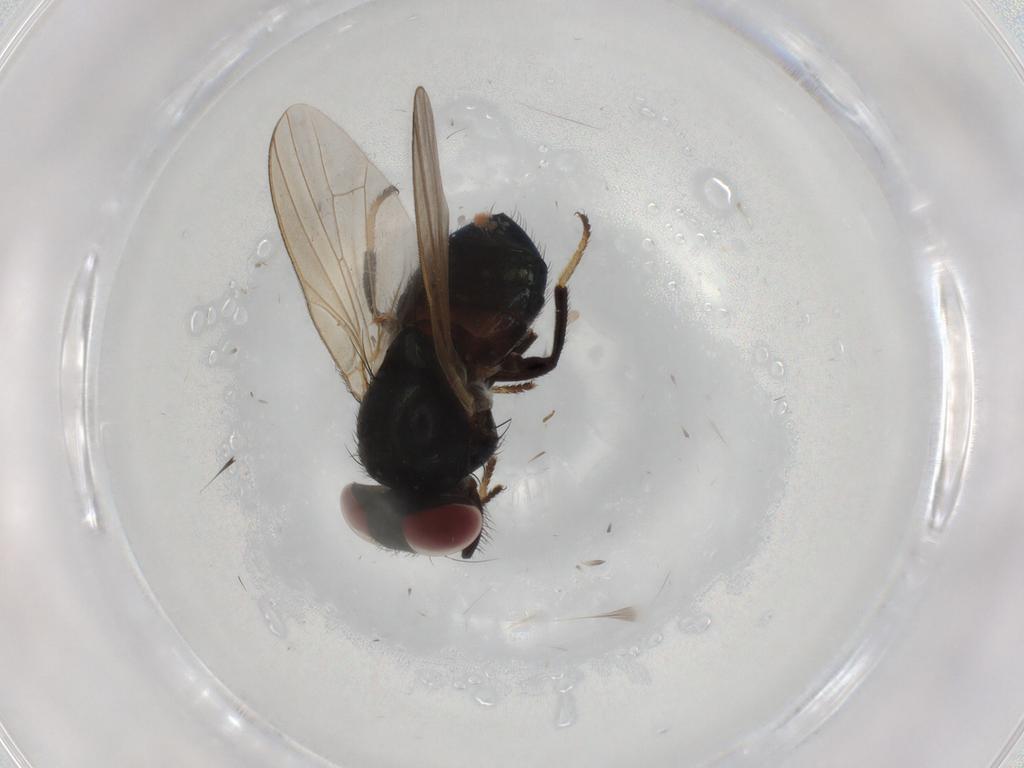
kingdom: Animalia
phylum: Arthropoda
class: Insecta
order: Diptera
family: Lonchaeidae
